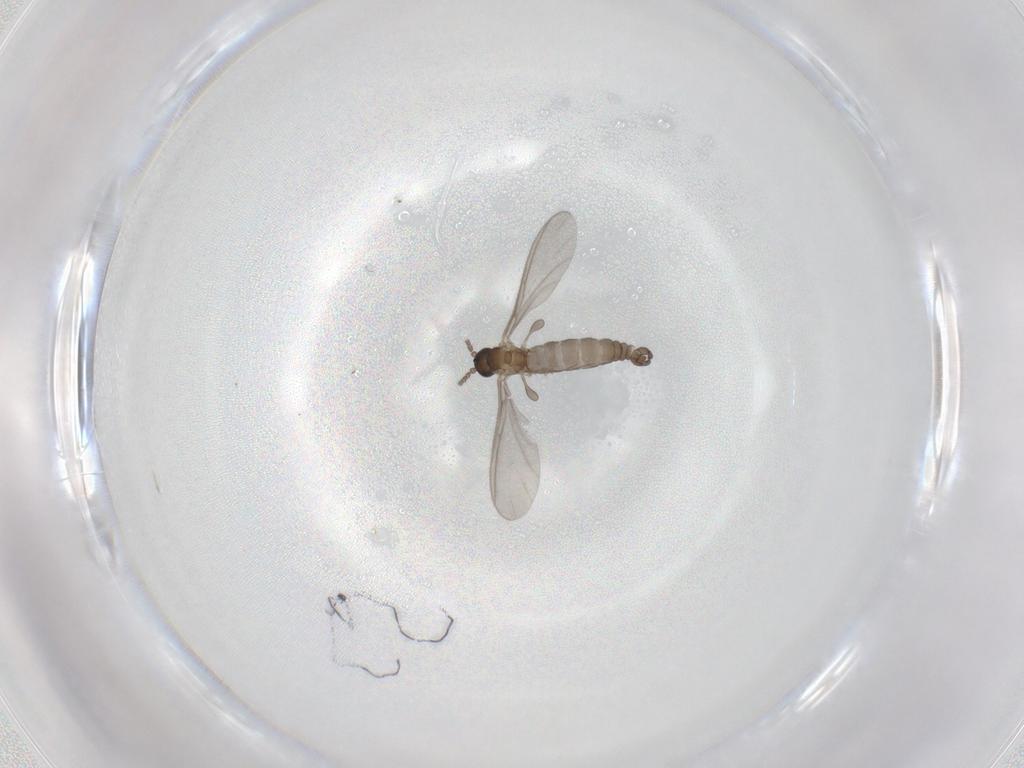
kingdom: Animalia
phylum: Arthropoda
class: Insecta
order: Diptera
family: Sciaridae
